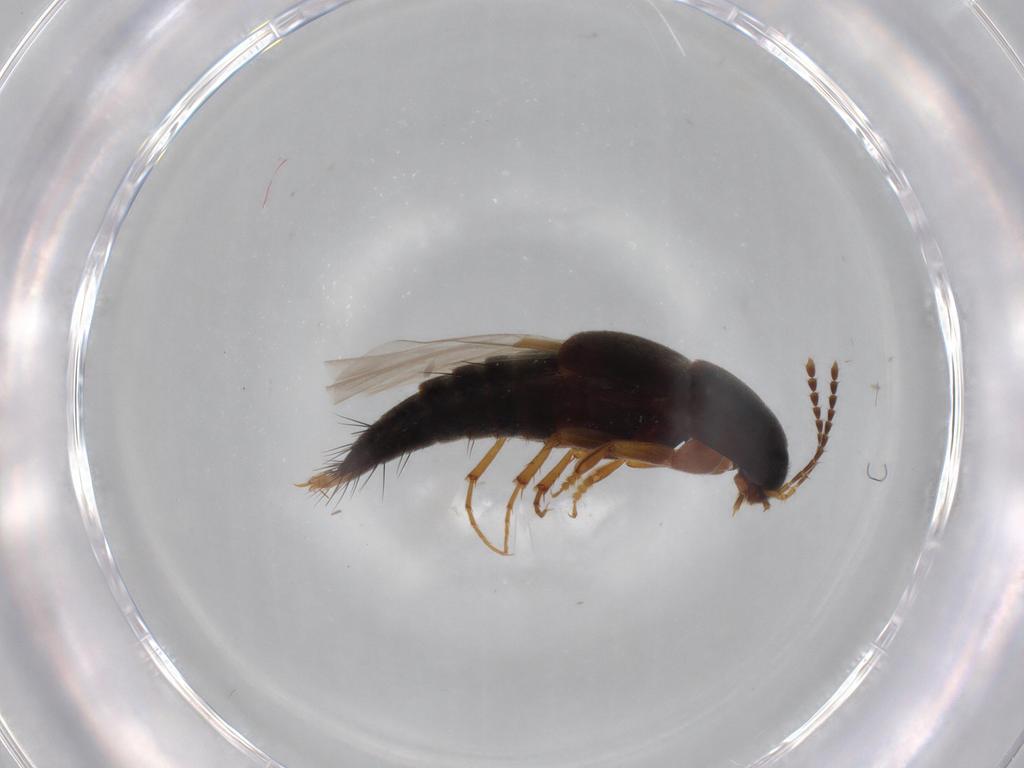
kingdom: Animalia
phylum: Arthropoda
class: Insecta
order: Coleoptera
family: Staphylinidae
